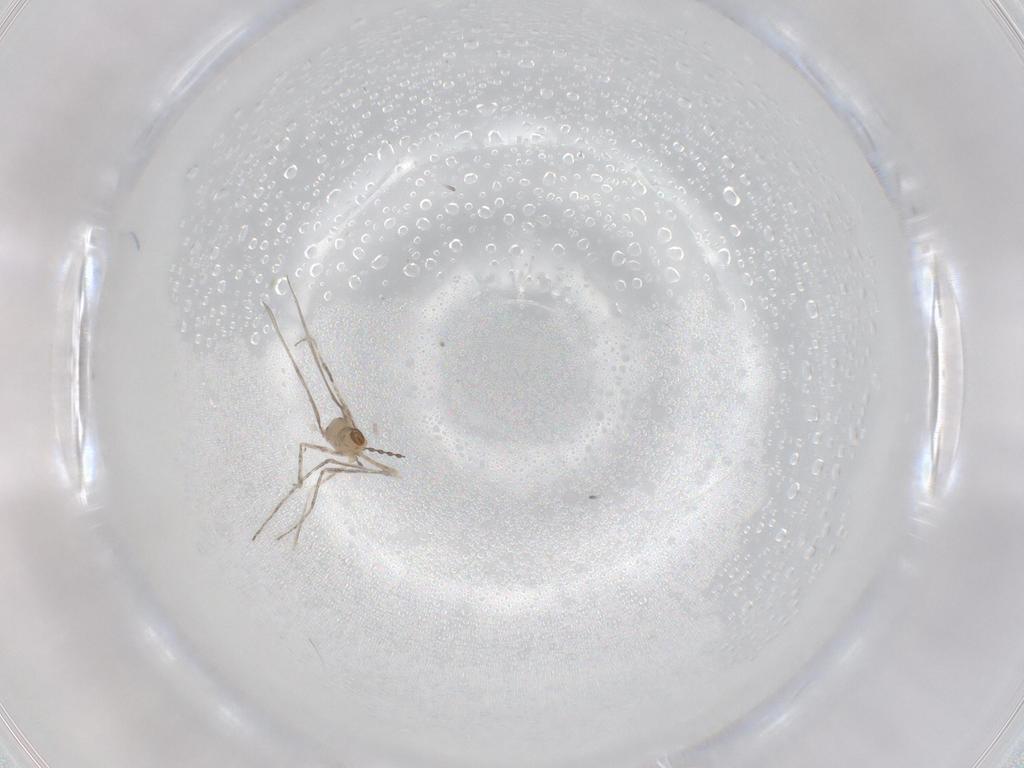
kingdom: Animalia
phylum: Arthropoda
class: Insecta
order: Diptera
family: Cecidomyiidae
